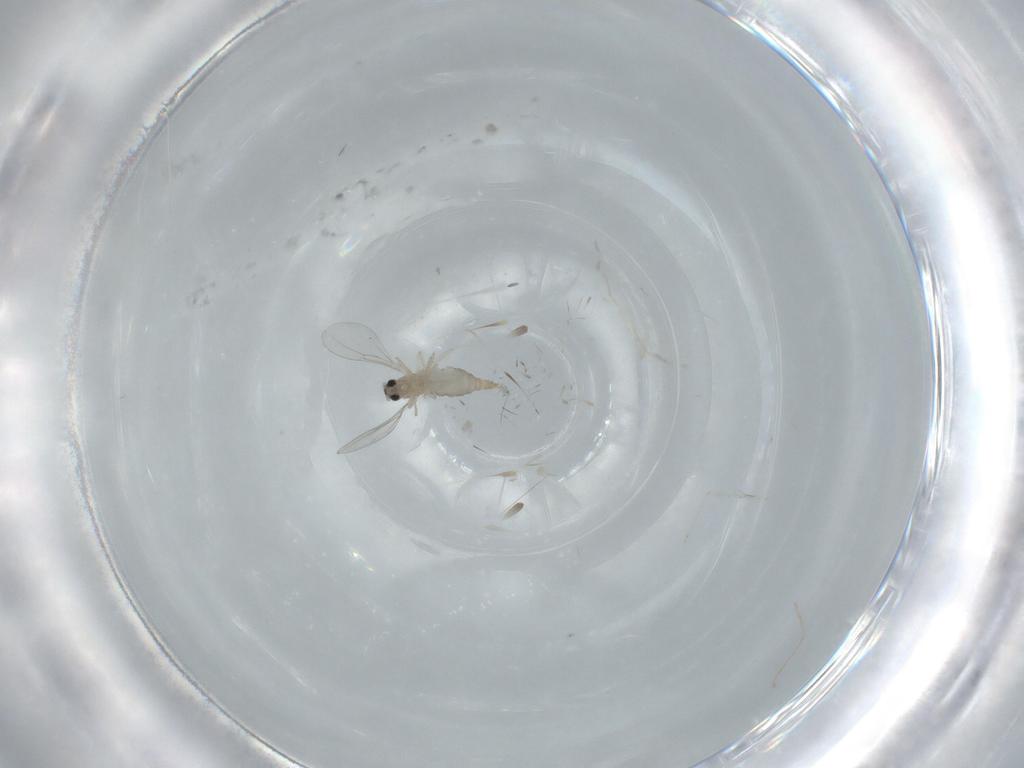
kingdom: Animalia
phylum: Arthropoda
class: Insecta
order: Diptera
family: Cecidomyiidae
